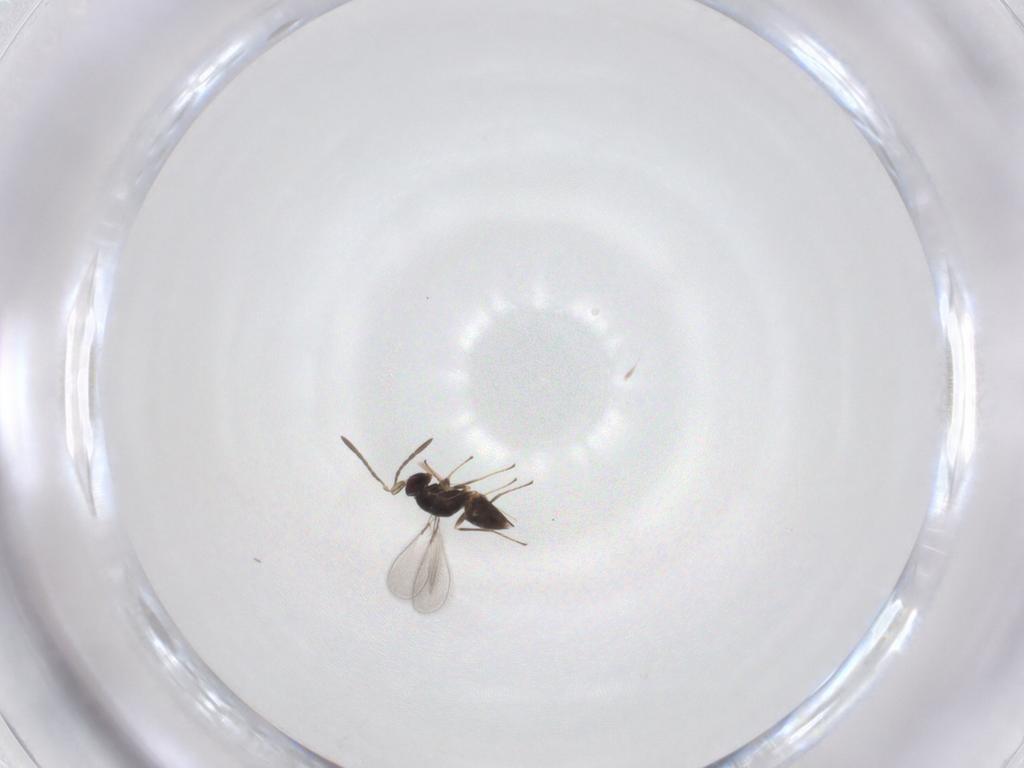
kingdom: Animalia
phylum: Arthropoda
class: Insecta
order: Hymenoptera
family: Mymaridae
